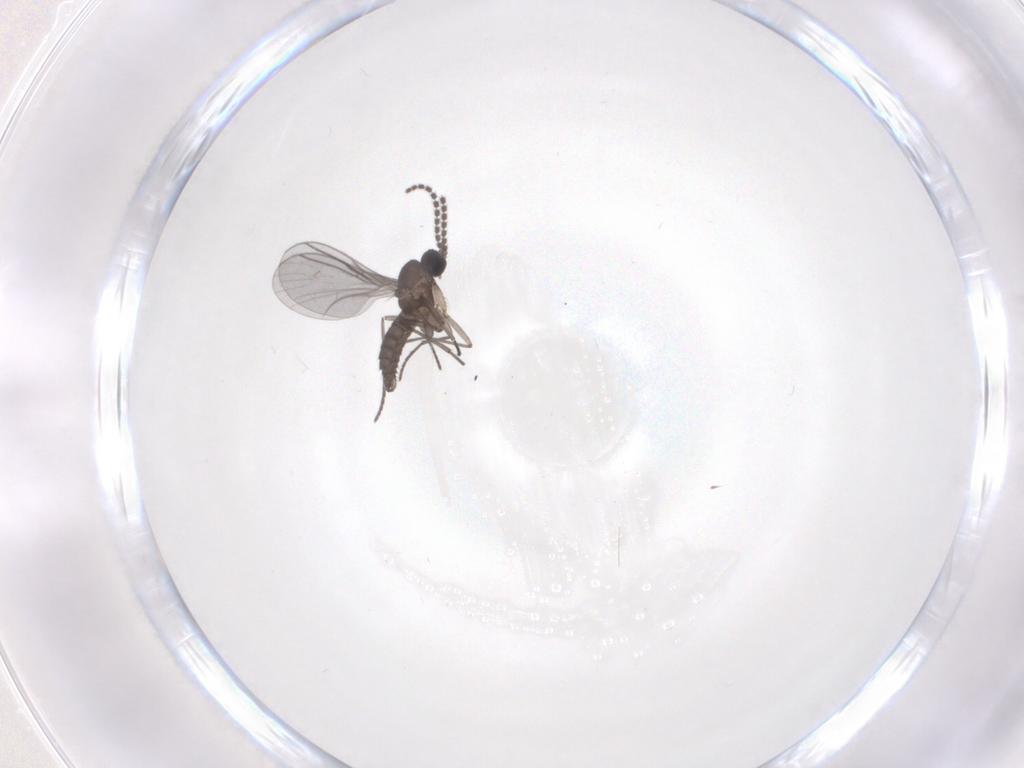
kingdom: Animalia
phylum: Arthropoda
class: Insecta
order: Diptera
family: Sciaridae
